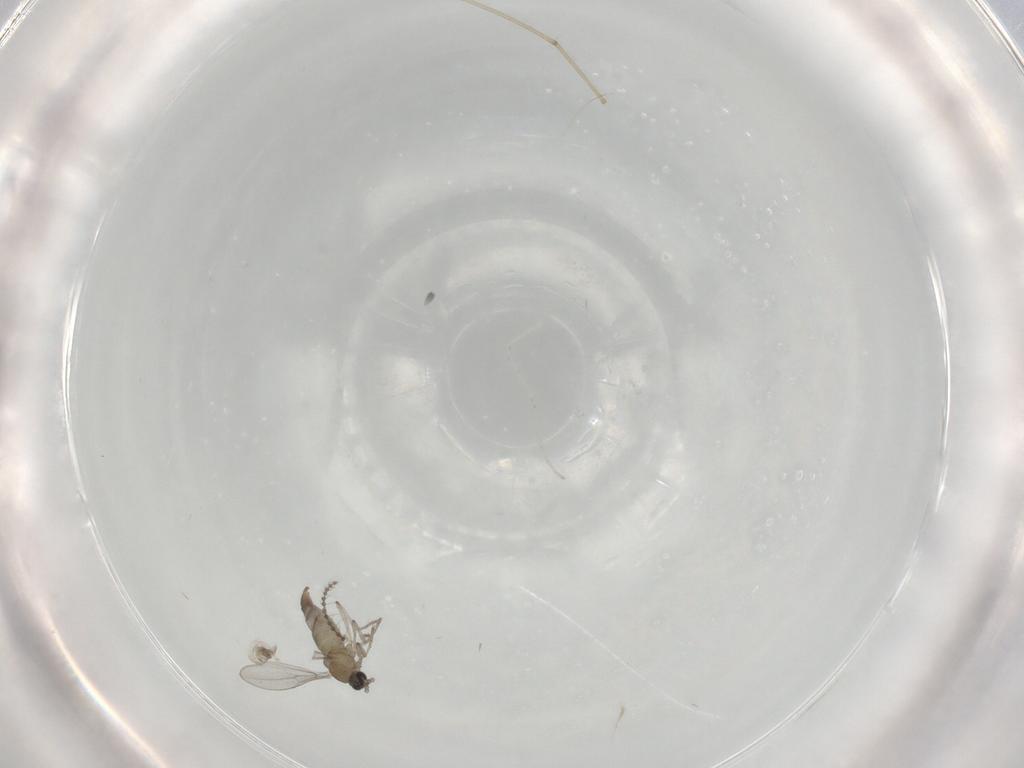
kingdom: Animalia
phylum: Arthropoda
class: Insecta
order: Diptera
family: Cecidomyiidae
